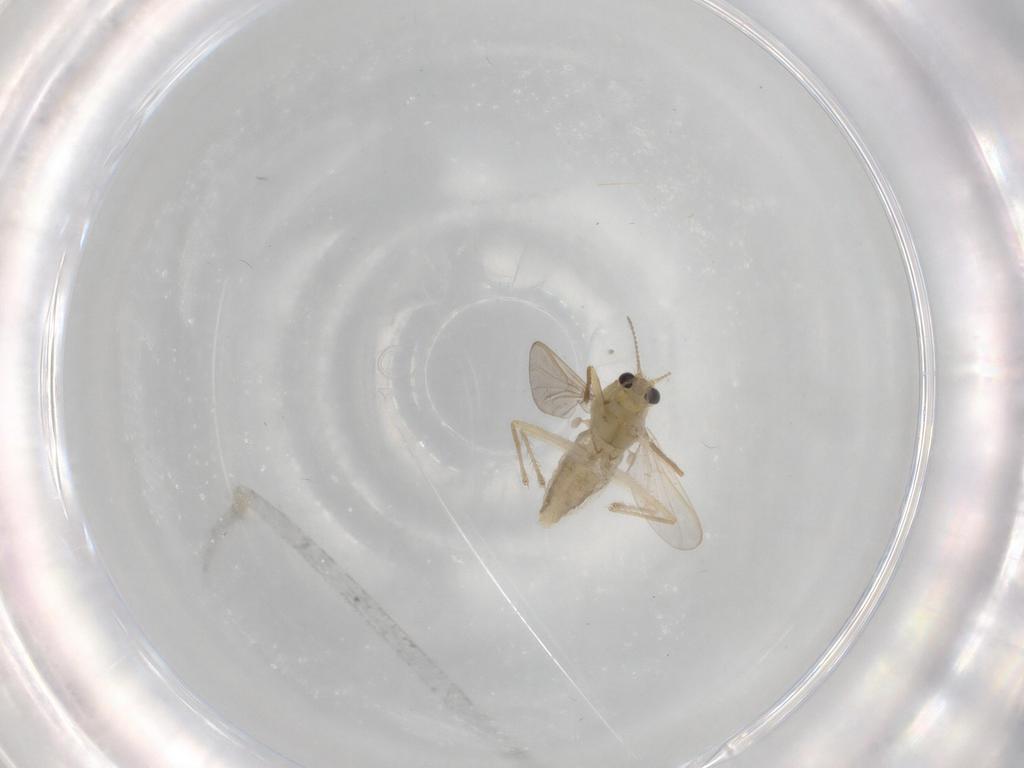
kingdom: Animalia
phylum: Arthropoda
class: Insecta
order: Diptera
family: Chironomidae
